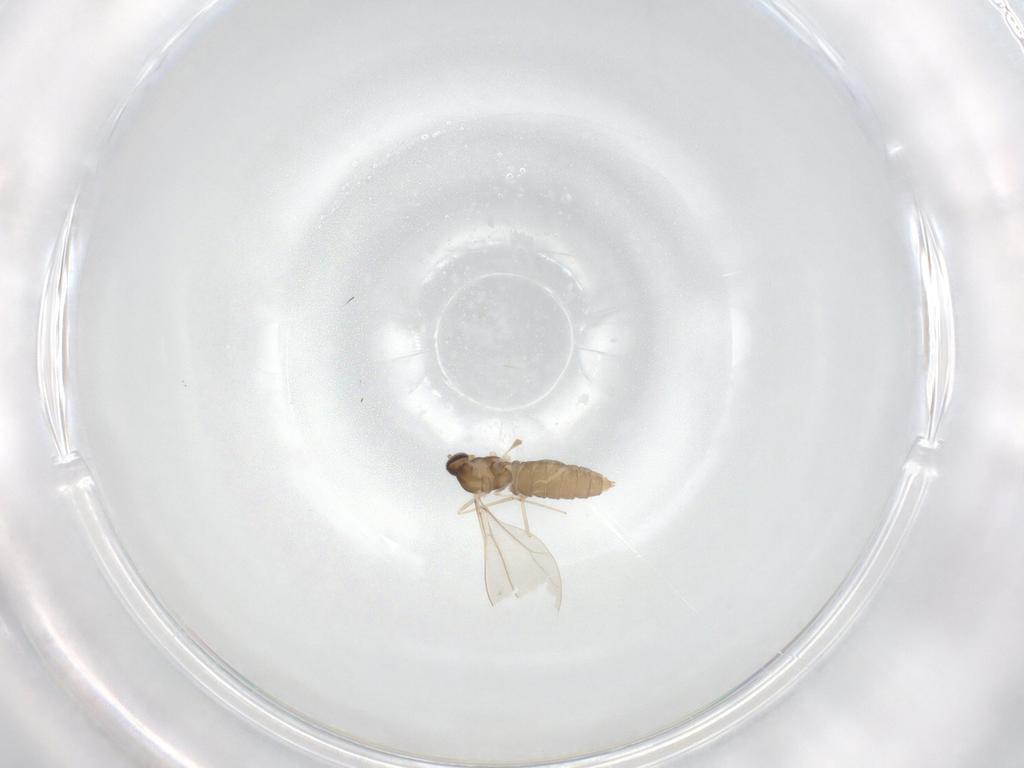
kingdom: Animalia
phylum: Arthropoda
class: Insecta
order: Diptera
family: Cecidomyiidae
